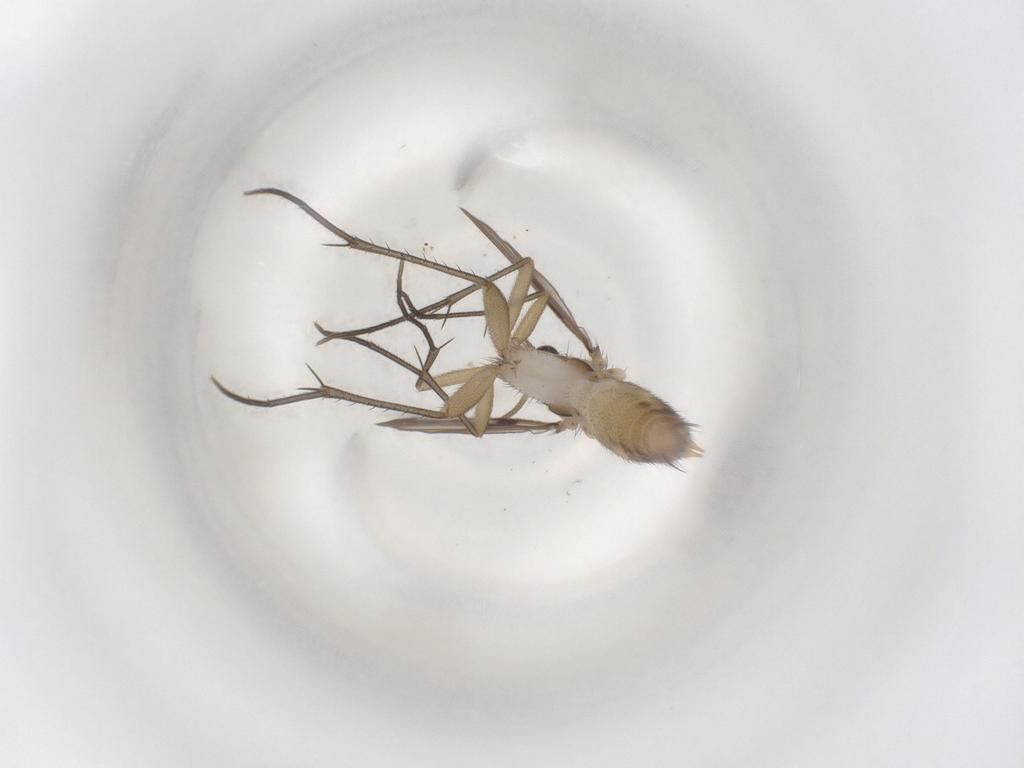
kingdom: Animalia
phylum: Arthropoda
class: Insecta
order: Diptera
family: Mycetophilidae
